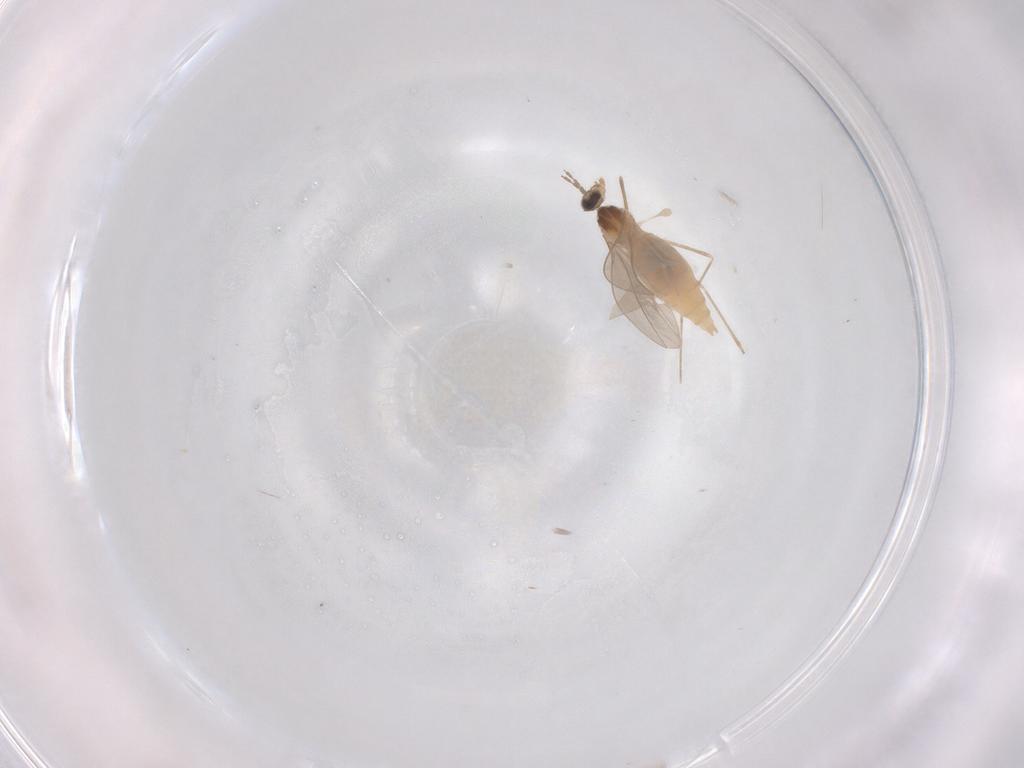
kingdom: Animalia
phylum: Arthropoda
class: Insecta
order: Diptera
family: Cecidomyiidae
